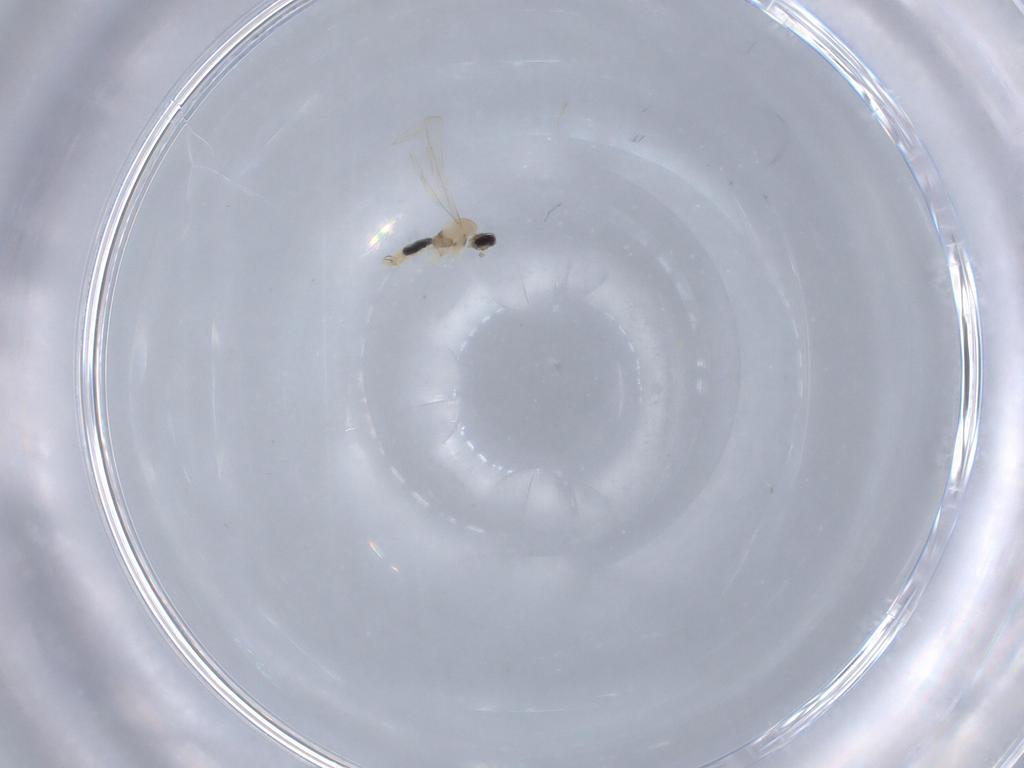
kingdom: Animalia
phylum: Arthropoda
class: Insecta
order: Diptera
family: Cecidomyiidae
